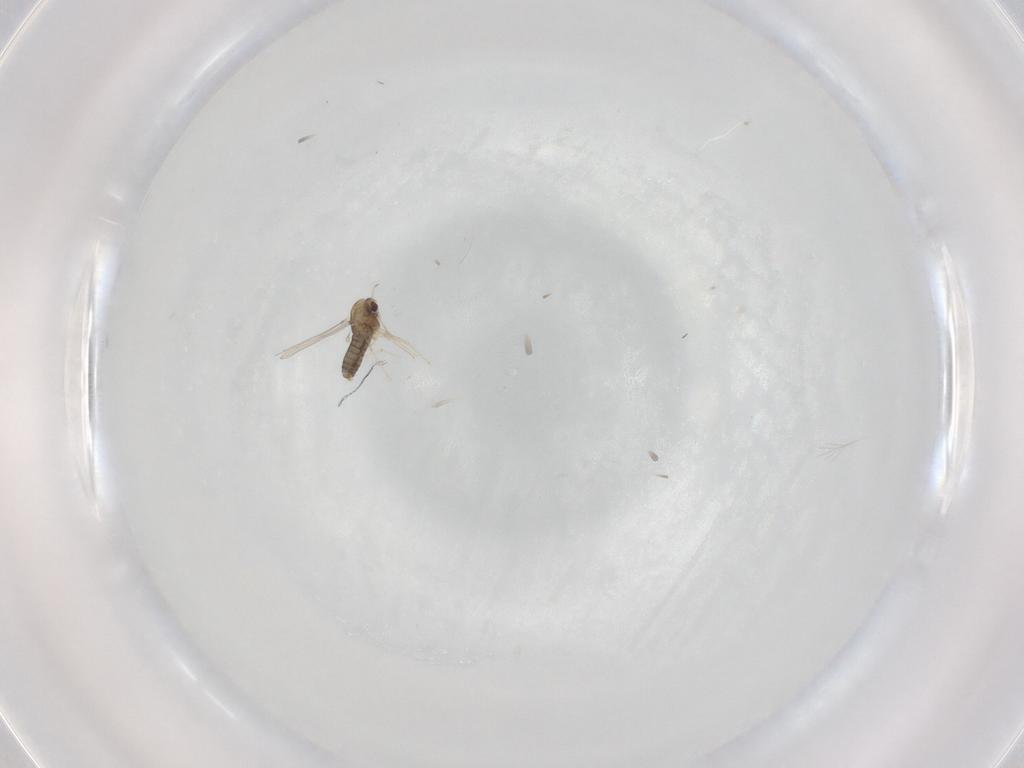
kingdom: Animalia
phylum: Arthropoda
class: Insecta
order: Diptera
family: Chironomidae
